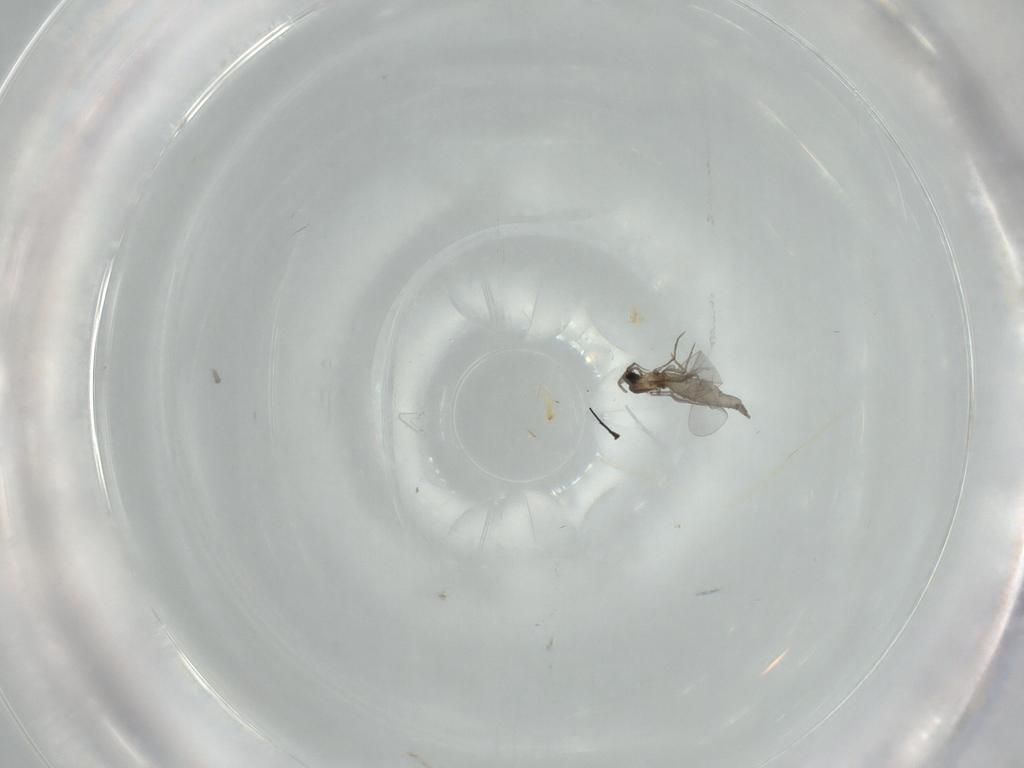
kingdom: Animalia
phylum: Arthropoda
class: Insecta
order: Diptera
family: Cecidomyiidae
